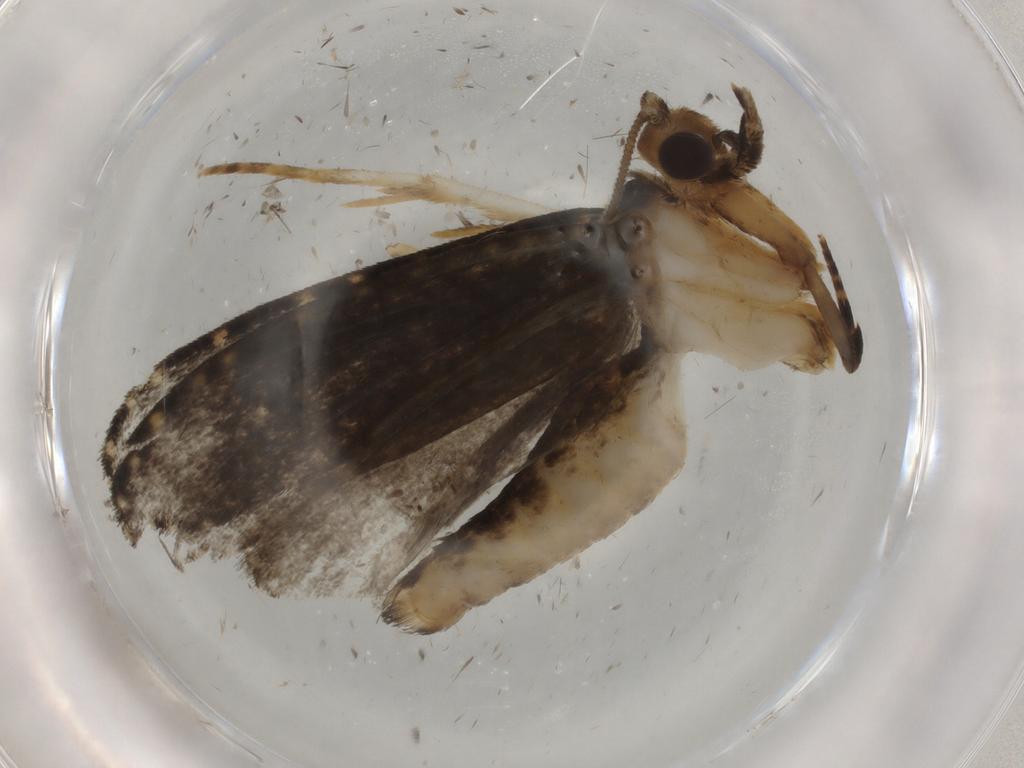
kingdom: Animalia
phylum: Arthropoda
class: Insecta
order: Lepidoptera
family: Tineidae
